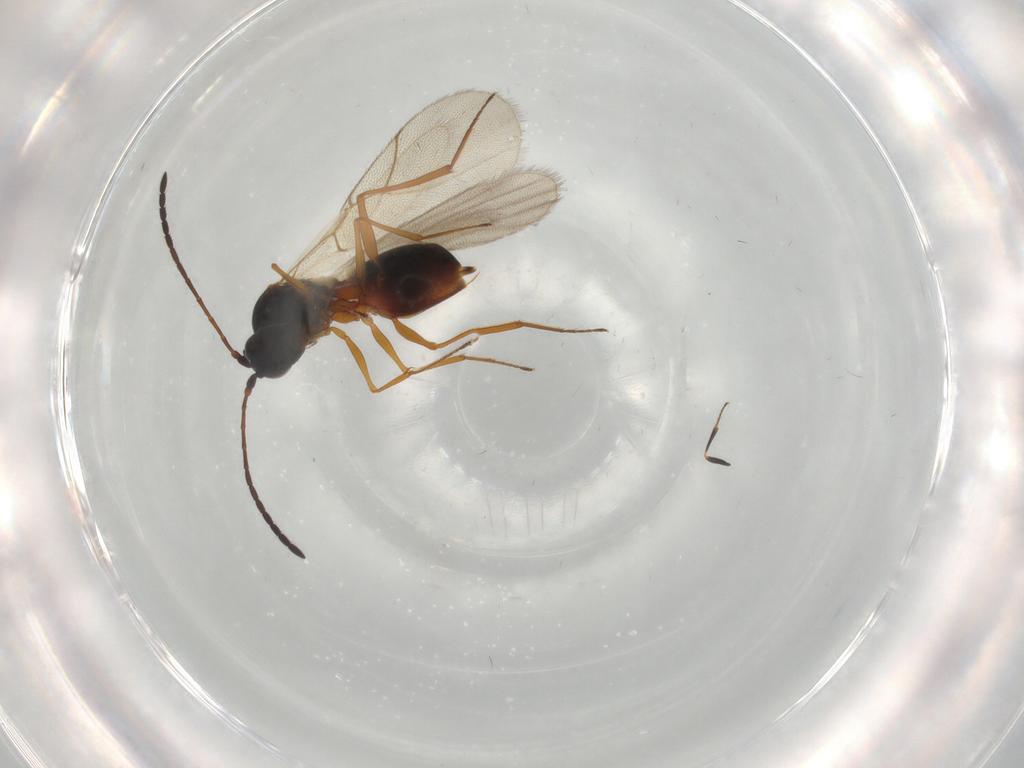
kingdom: Animalia
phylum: Arthropoda
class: Insecta
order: Hymenoptera
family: Figitidae
